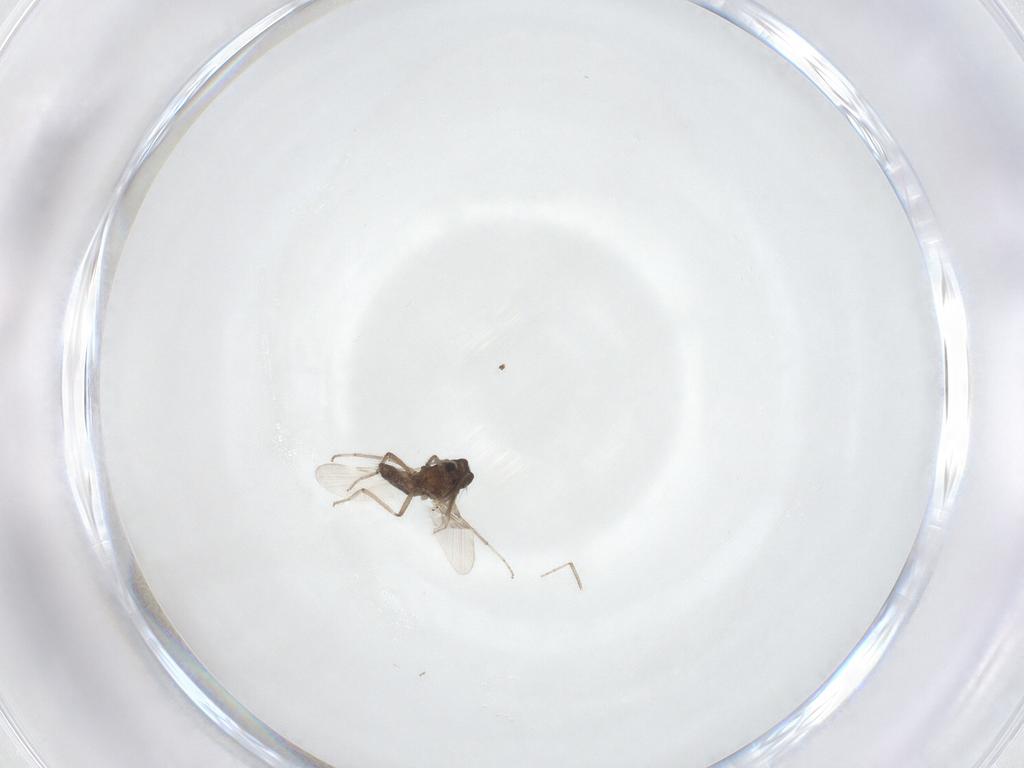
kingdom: Animalia
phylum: Arthropoda
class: Insecta
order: Diptera
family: Ceratopogonidae
